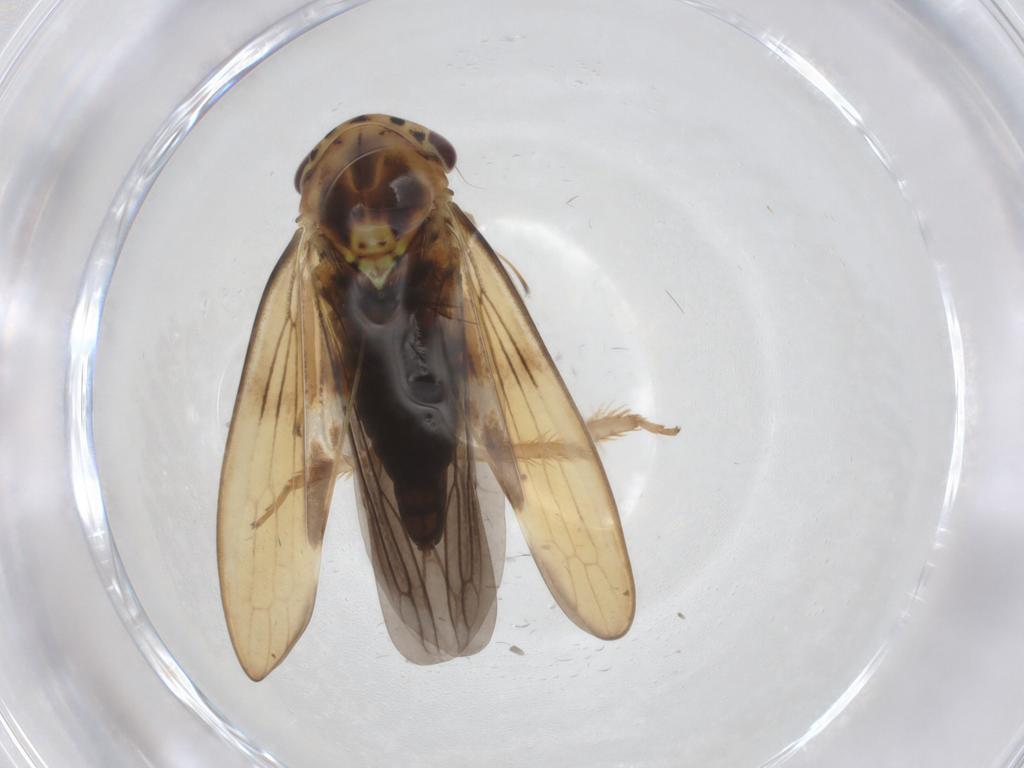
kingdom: Animalia
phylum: Arthropoda
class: Insecta
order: Hemiptera
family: Cicadellidae
